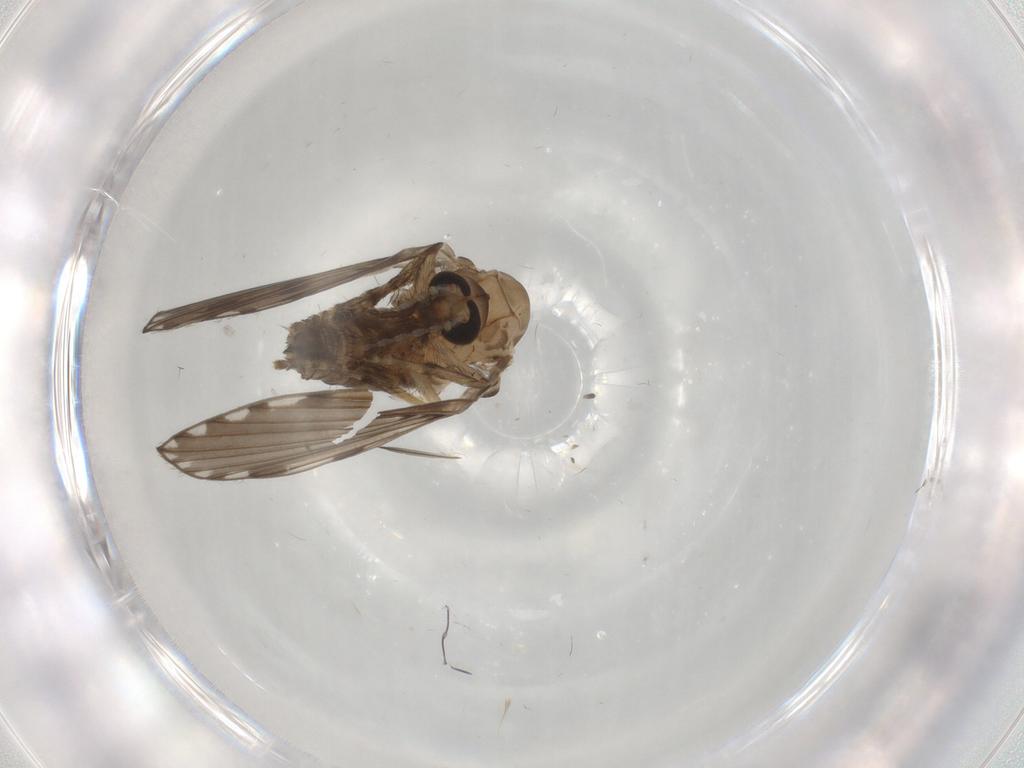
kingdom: Animalia
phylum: Arthropoda
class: Insecta
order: Diptera
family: Psychodidae
